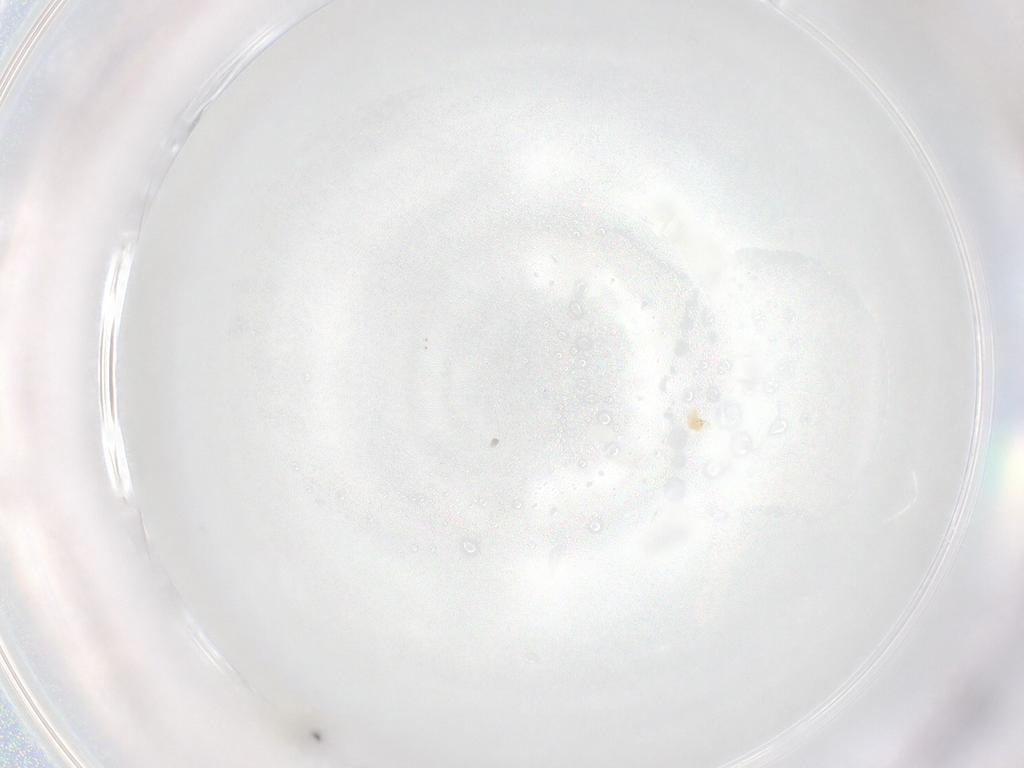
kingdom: Animalia
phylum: Arthropoda
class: Insecta
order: Diptera
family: Cecidomyiidae
